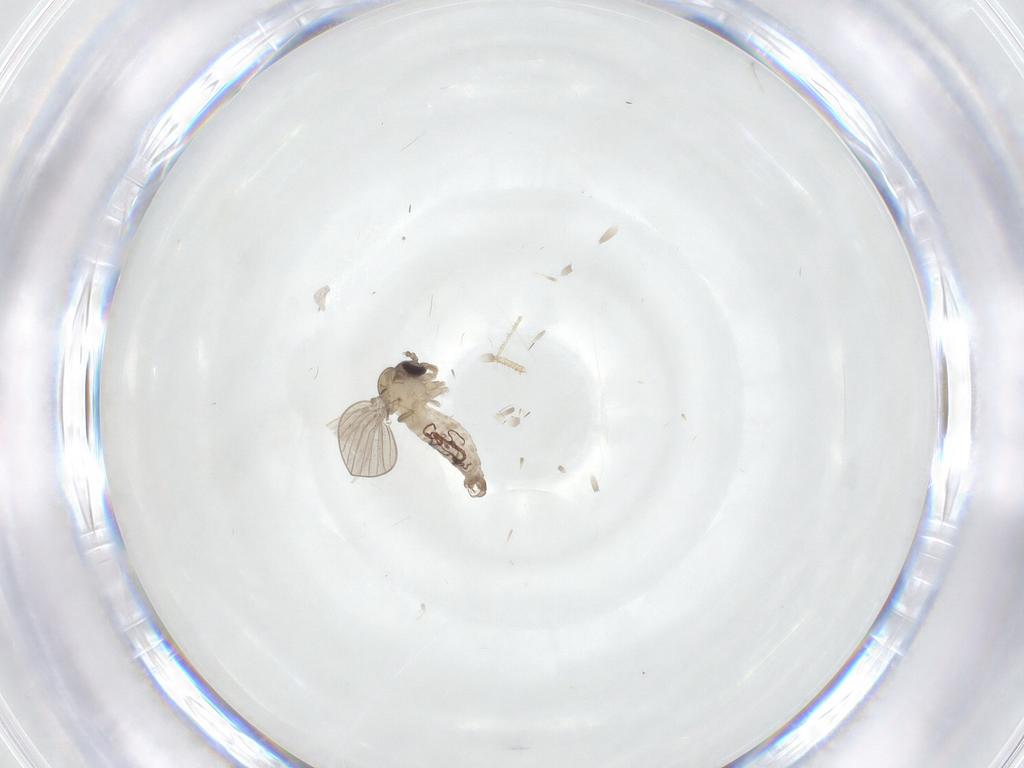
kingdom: Animalia
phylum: Arthropoda
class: Insecta
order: Diptera
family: Psychodidae
